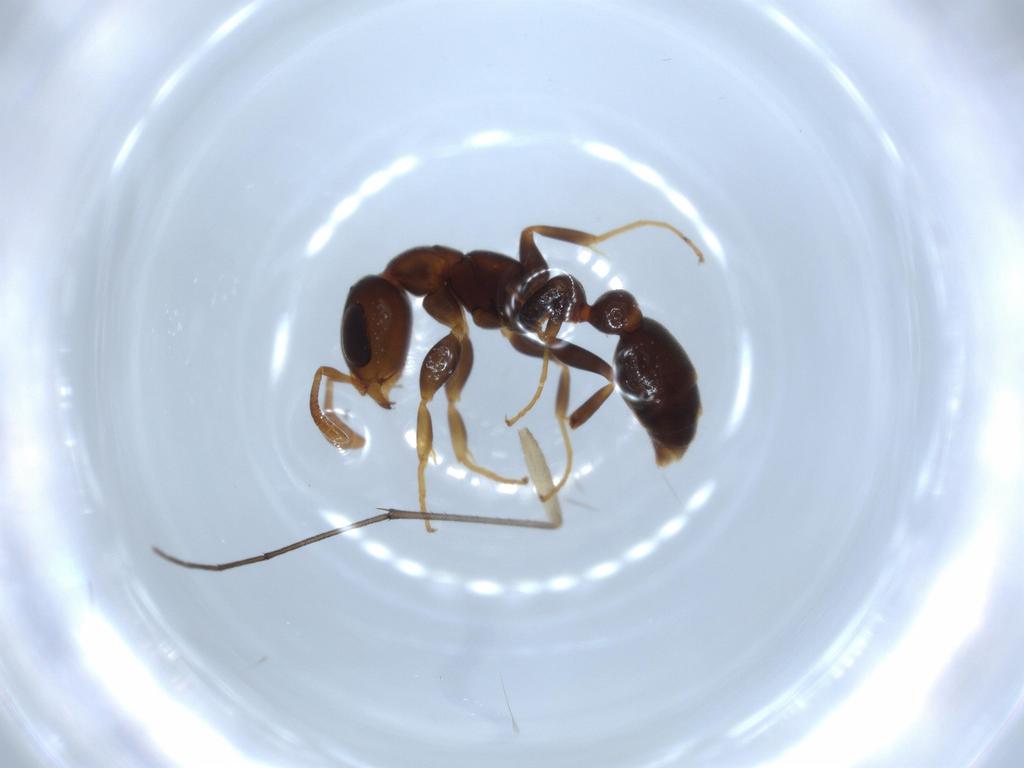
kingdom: Animalia
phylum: Arthropoda
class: Insecta
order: Hymenoptera
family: Formicidae
